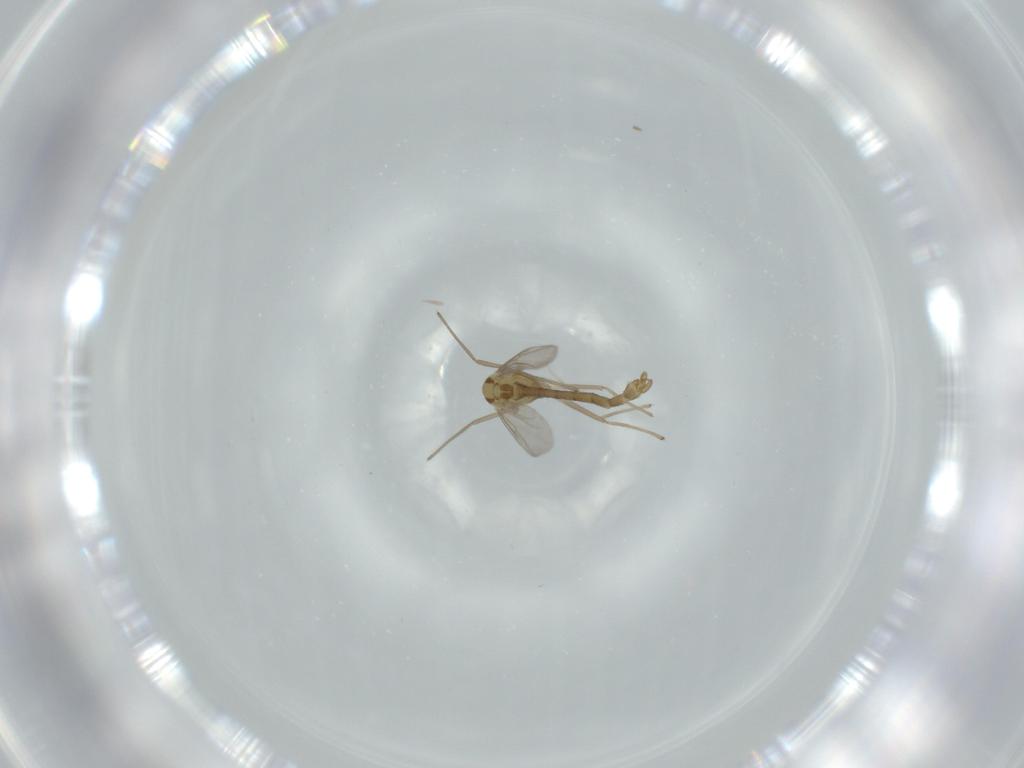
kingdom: Animalia
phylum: Arthropoda
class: Insecta
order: Diptera
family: Chironomidae
